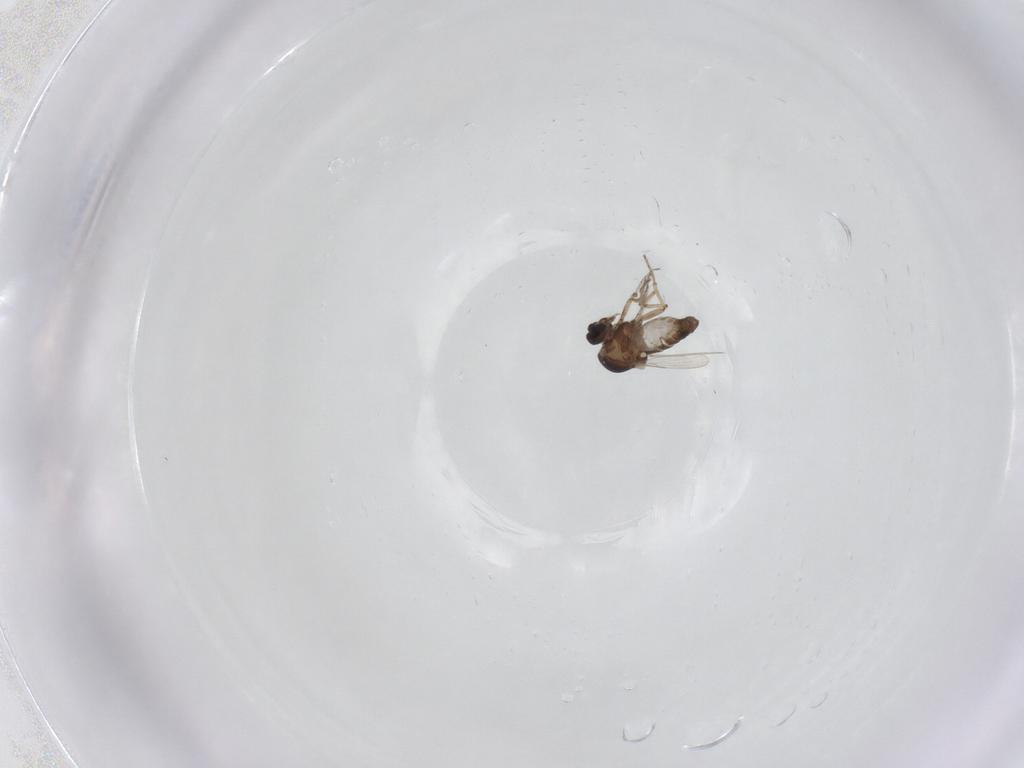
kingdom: Animalia
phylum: Arthropoda
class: Insecta
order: Diptera
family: Ceratopogonidae
